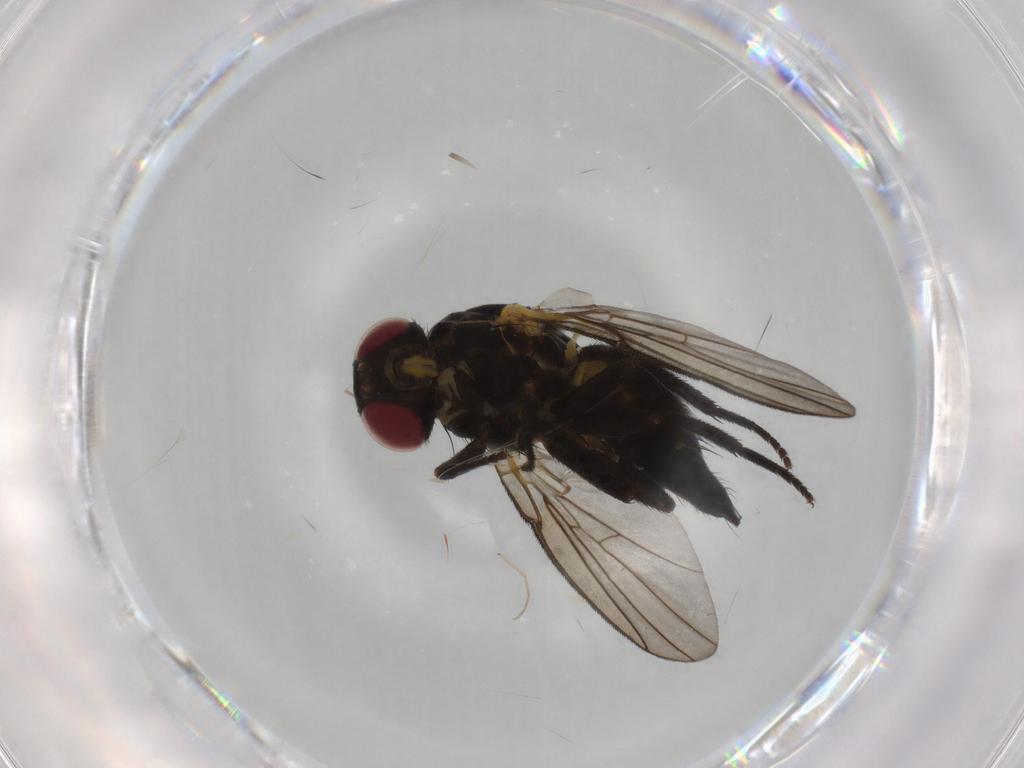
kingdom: Animalia
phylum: Arthropoda
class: Insecta
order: Diptera
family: Agromyzidae
